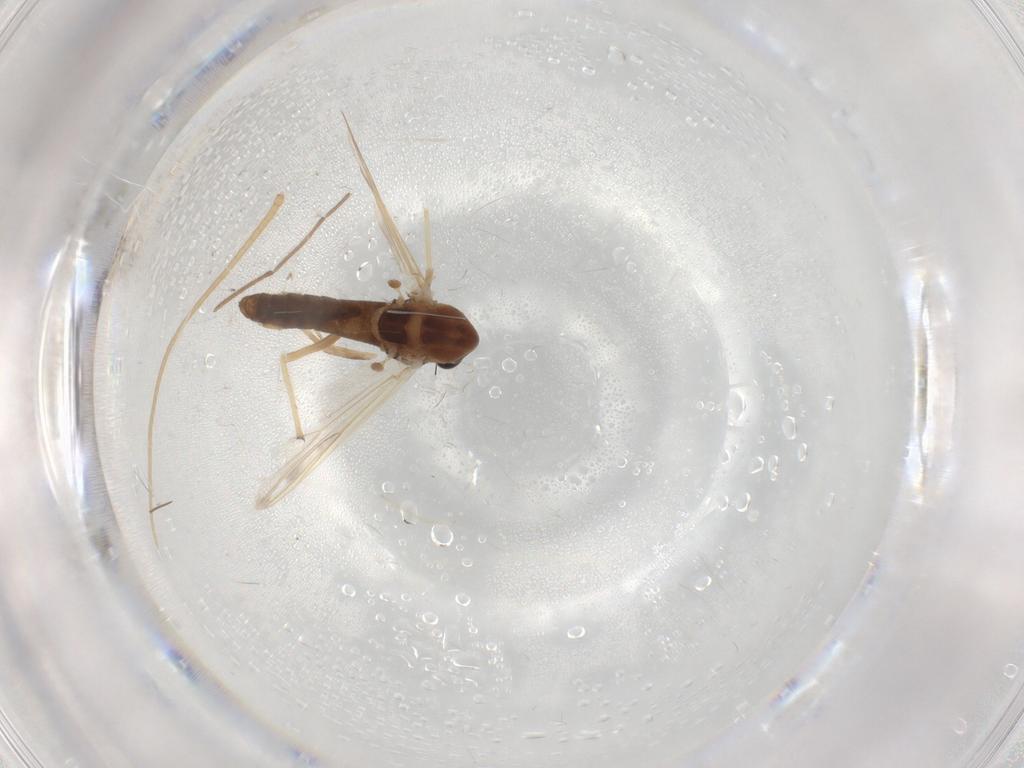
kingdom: Animalia
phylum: Arthropoda
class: Insecta
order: Diptera
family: Chironomidae
